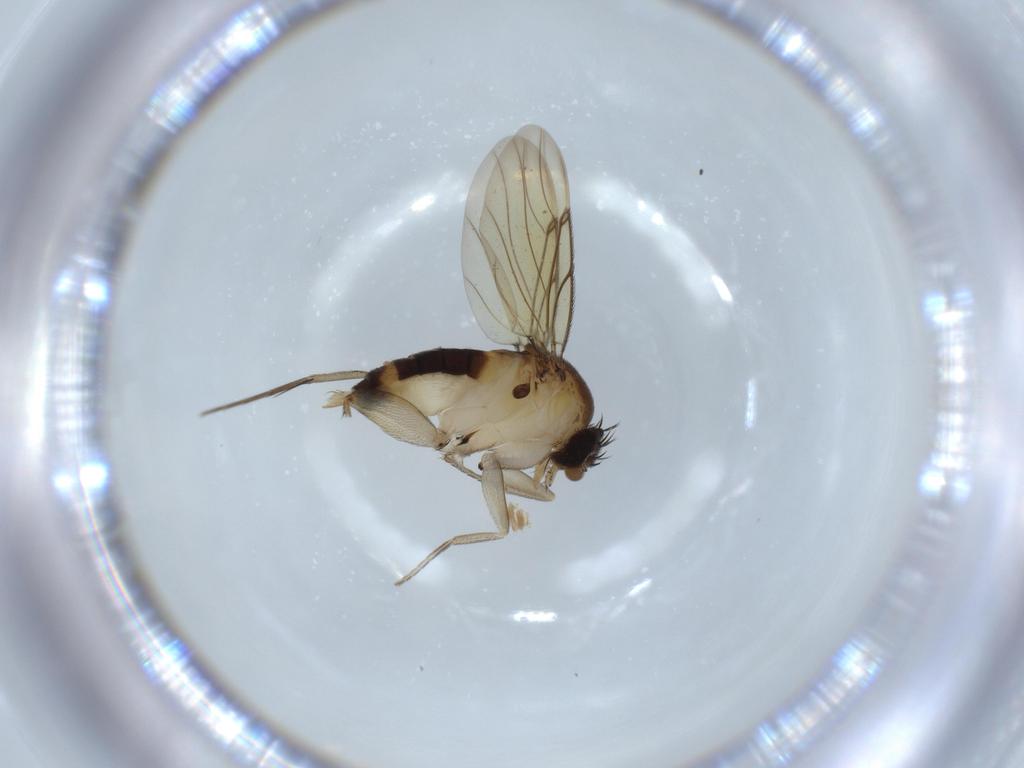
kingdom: Animalia
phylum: Arthropoda
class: Insecta
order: Diptera
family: Phoridae
